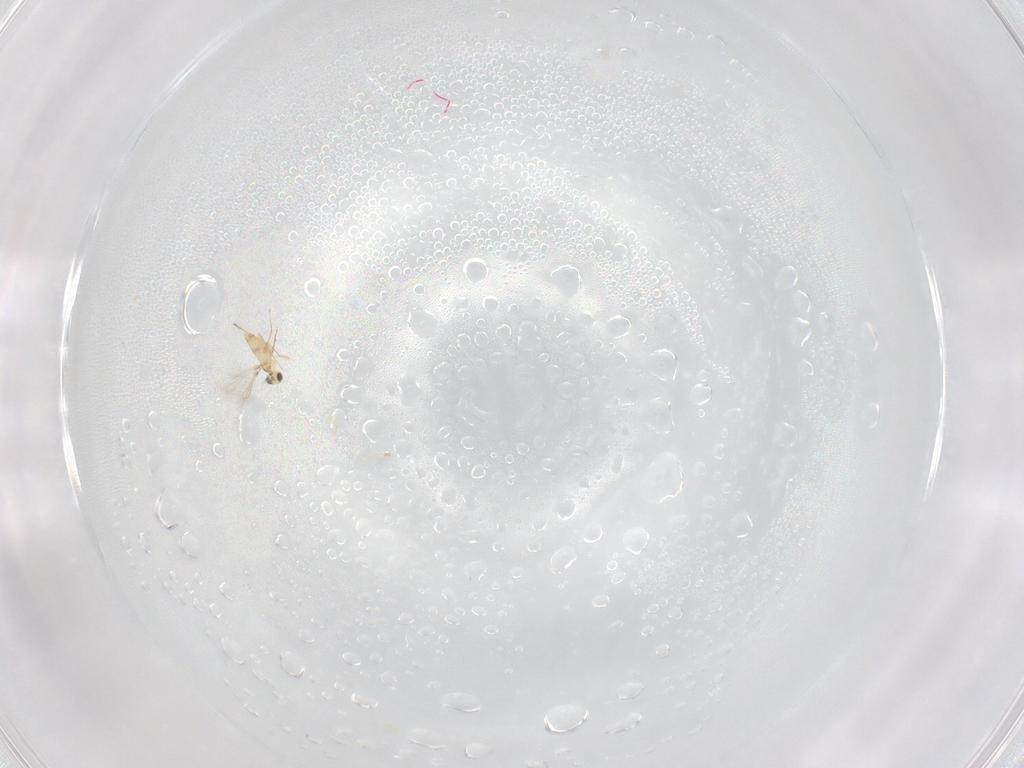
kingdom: Animalia
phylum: Arthropoda
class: Insecta
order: Hymenoptera
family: Mymaridae
